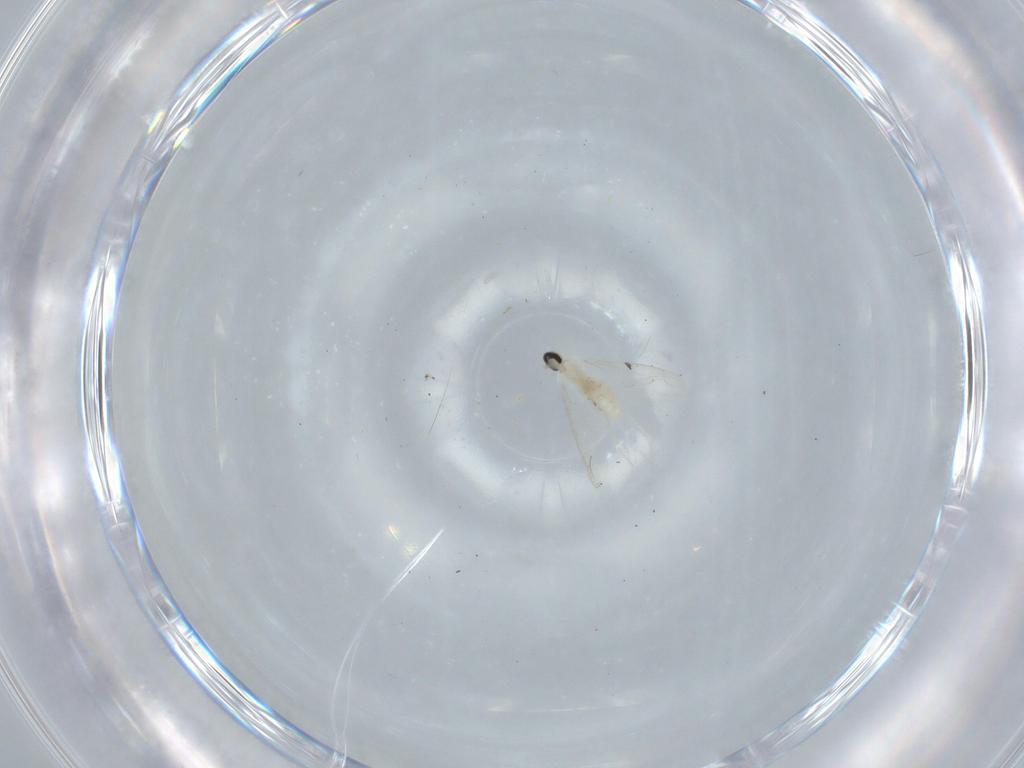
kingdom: Animalia
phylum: Arthropoda
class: Insecta
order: Diptera
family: Cecidomyiidae
